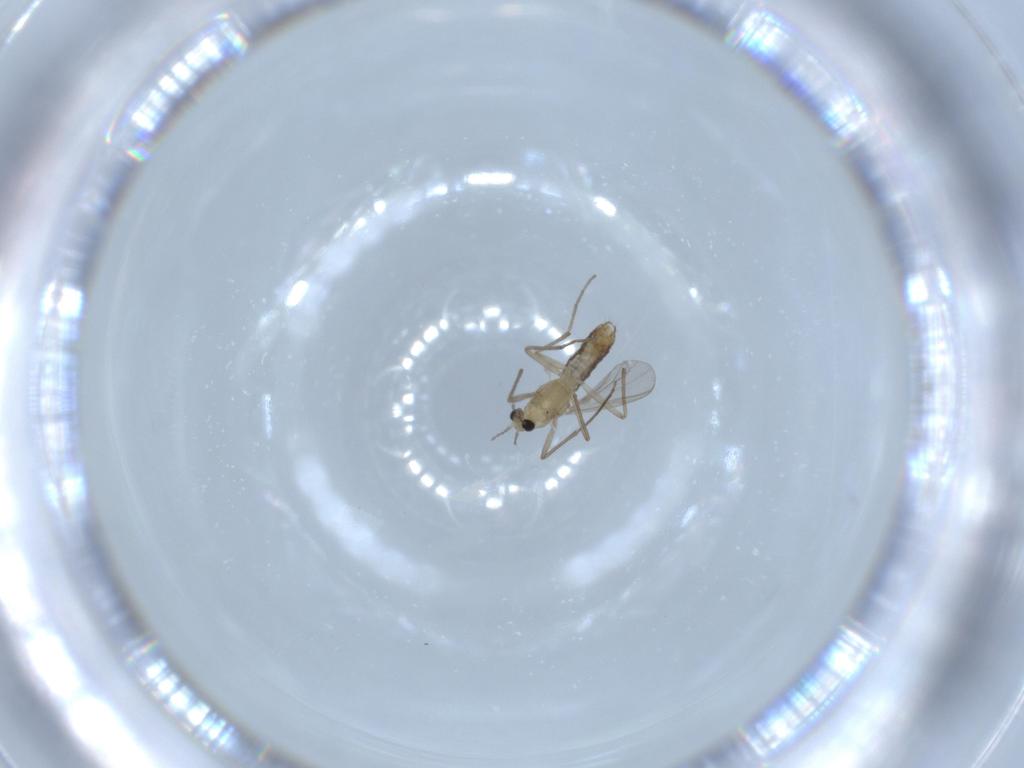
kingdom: Animalia
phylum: Arthropoda
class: Insecta
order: Diptera
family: Chironomidae
